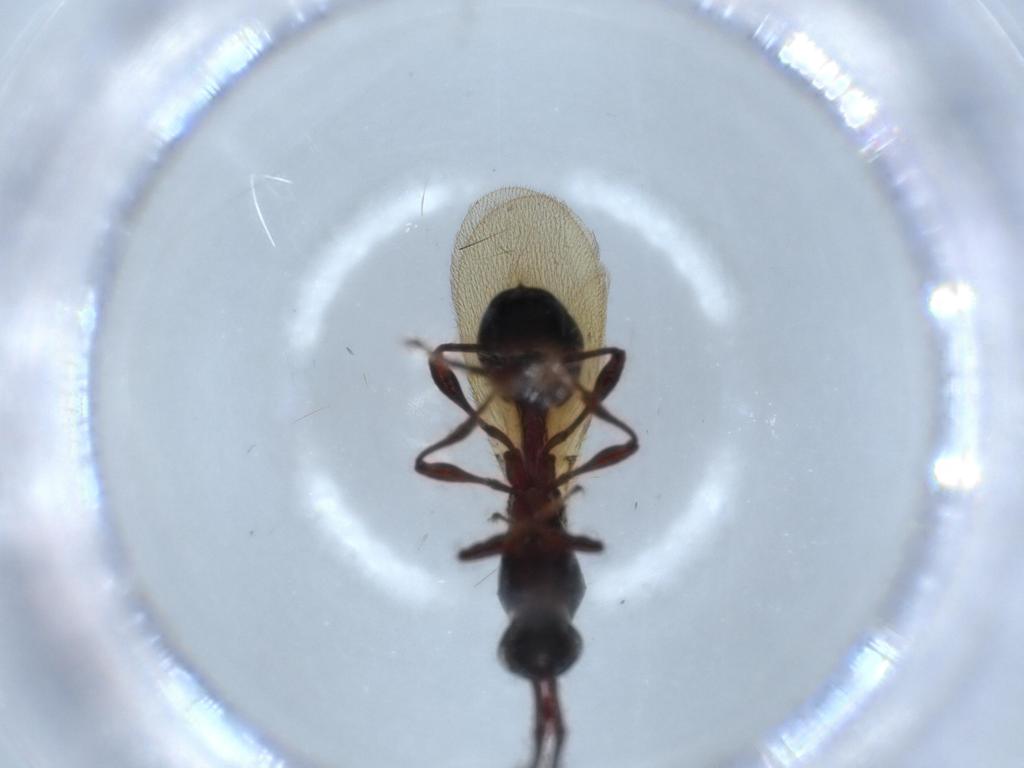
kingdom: Animalia
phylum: Arthropoda
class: Insecta
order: Hymenoptera
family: Diapriidae
